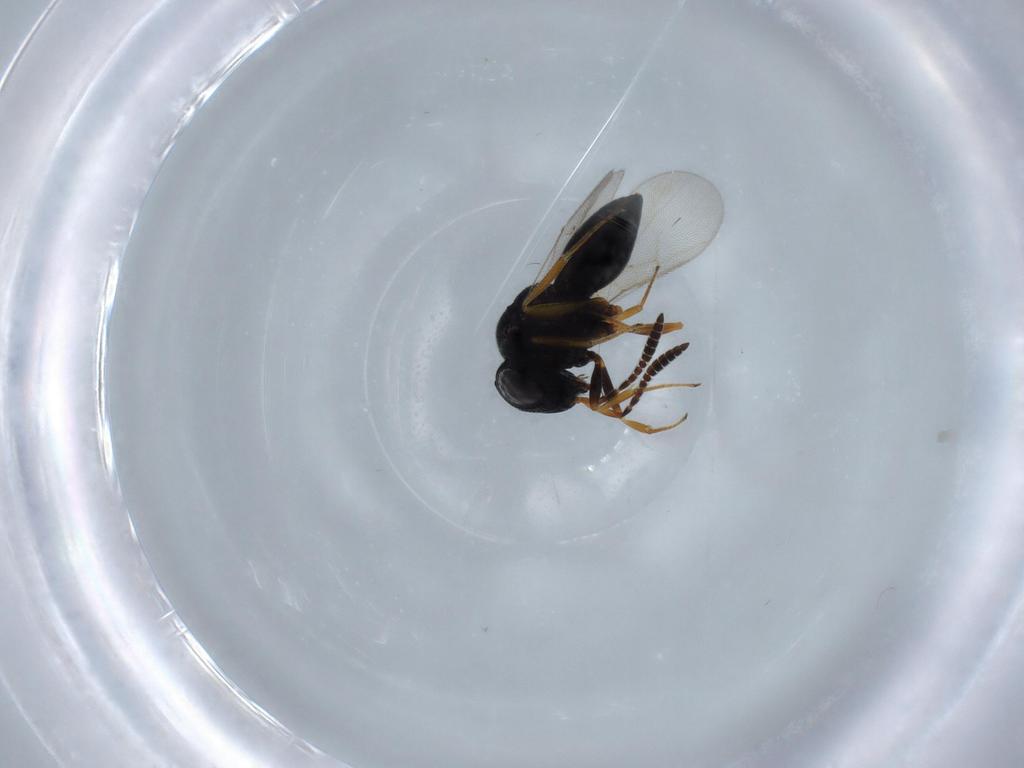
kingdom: Animalia
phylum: Arthropoda
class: Insecta
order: Hymenoptera
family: Scelionidae
